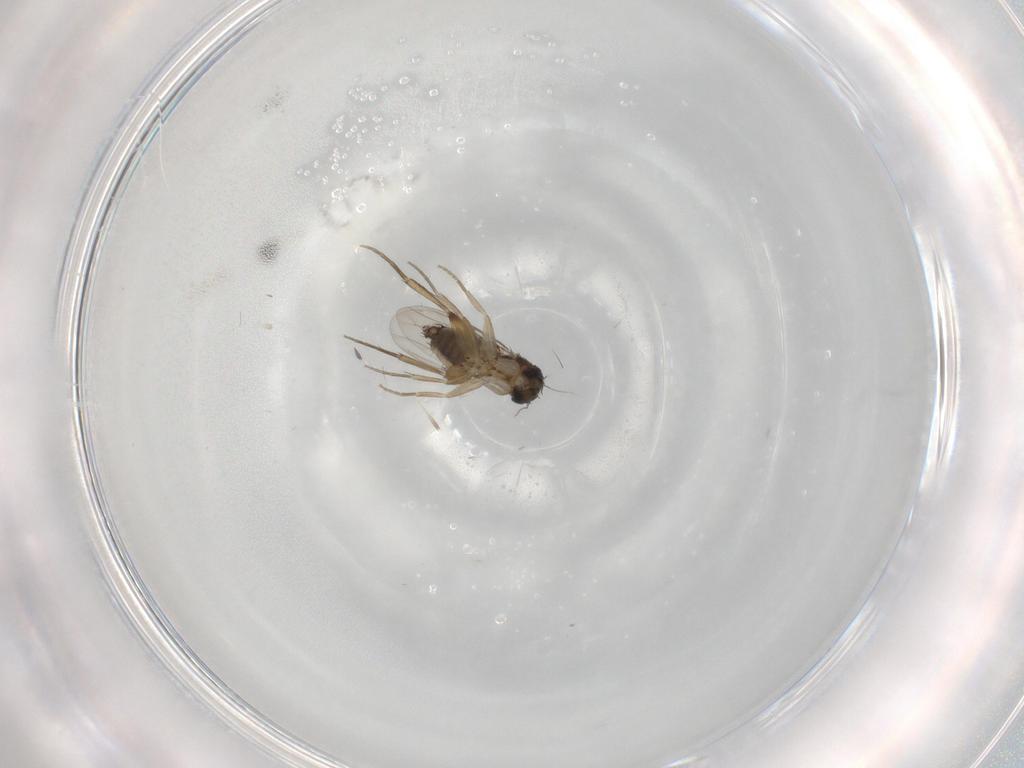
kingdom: Animalia
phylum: Arthropoda
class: Insecta
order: Diptera
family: Phoridae
